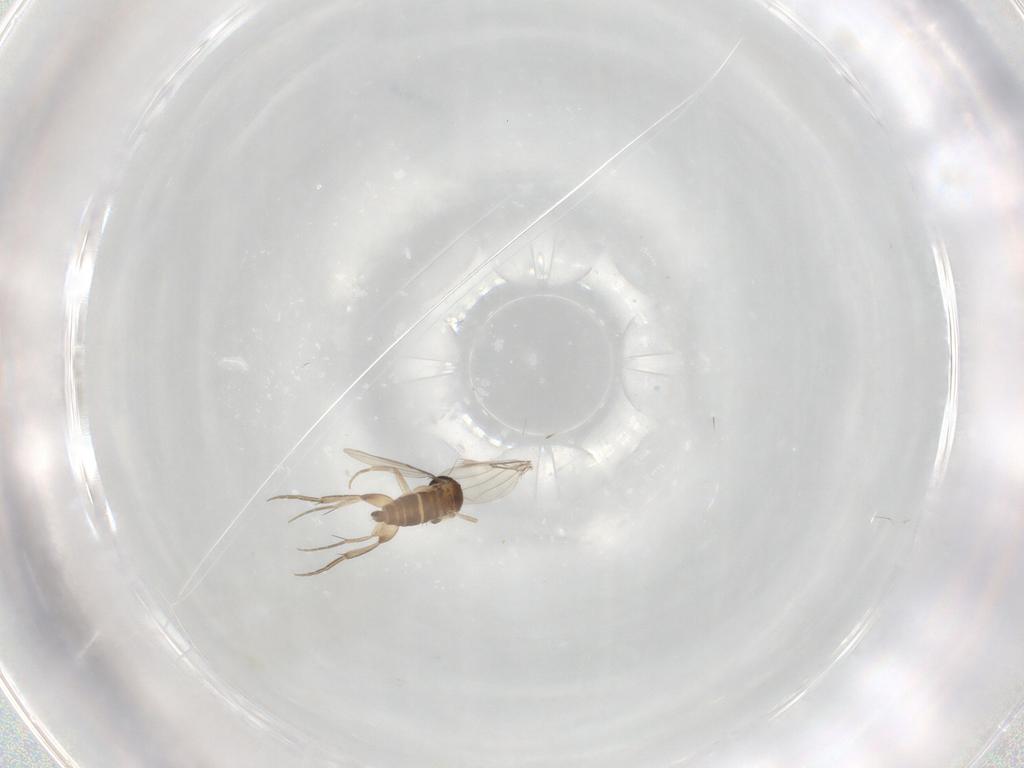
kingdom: Animalia
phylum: Arthropoda
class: Insecta
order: Diptera
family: Phoridae
